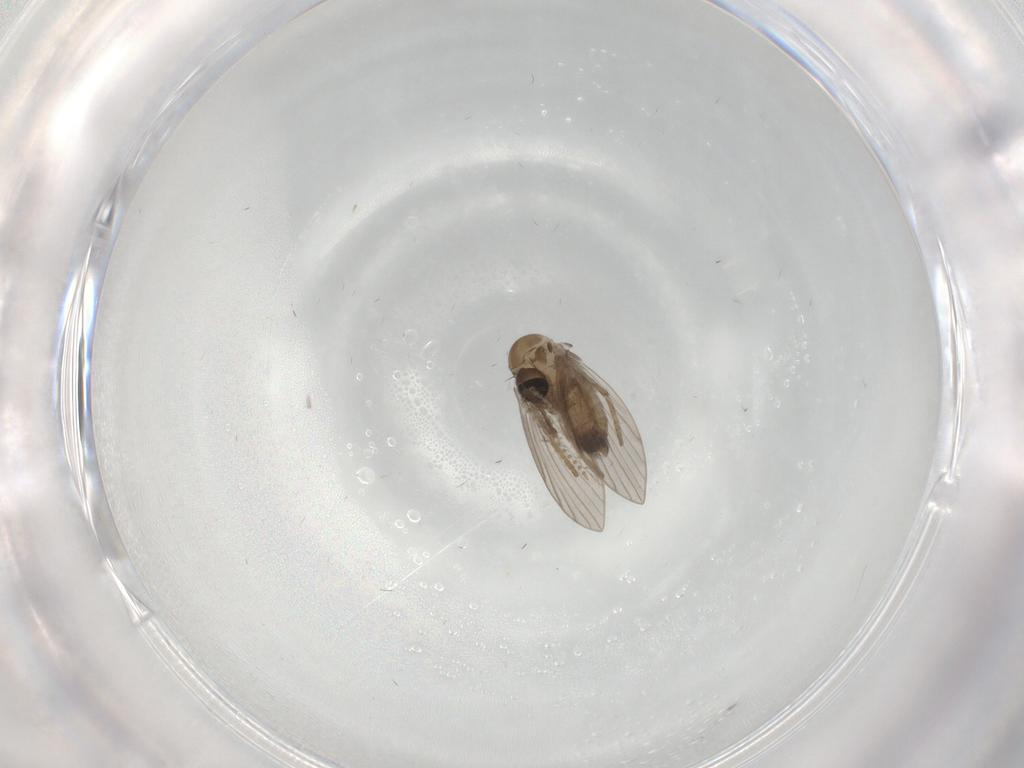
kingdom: Animalia
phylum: Arthropoda
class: Insecta
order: Diptera
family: Psychodidae
